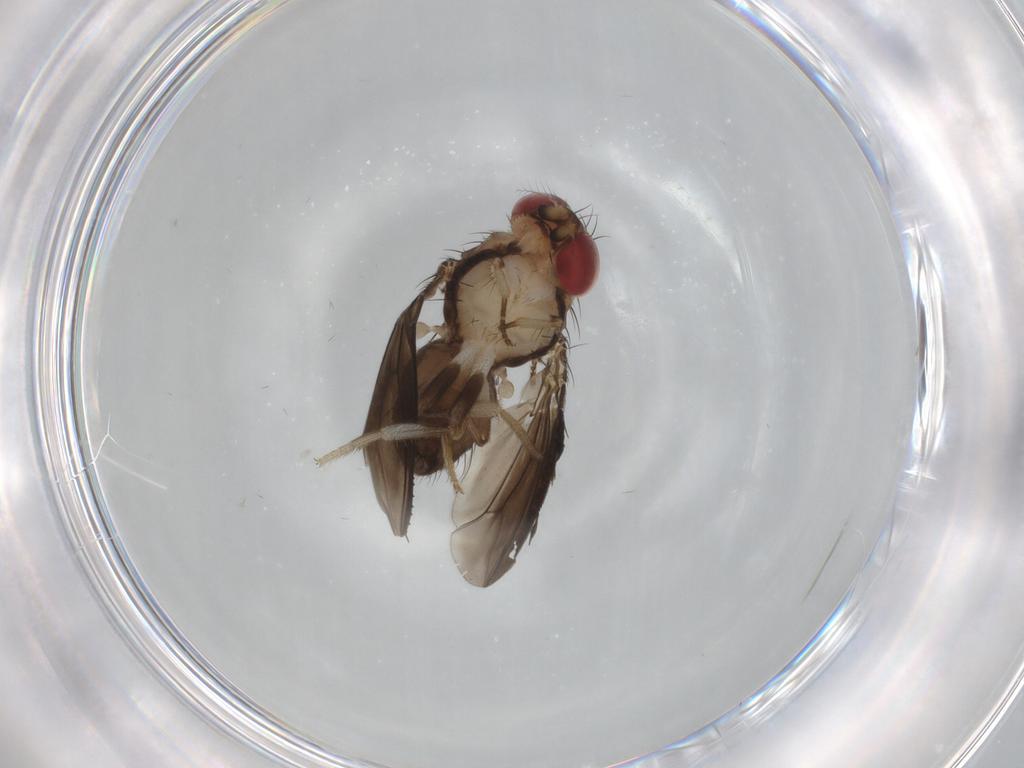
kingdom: Animalia
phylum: Arthropoda
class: Insecta
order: Diptera
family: Drosophilidae
